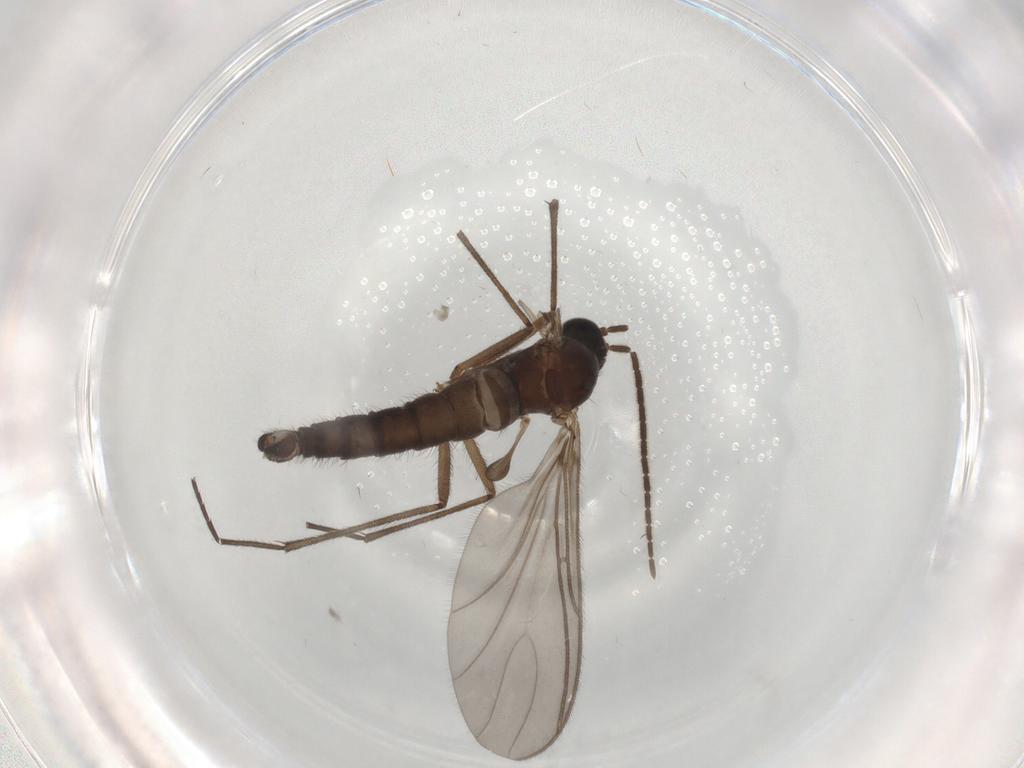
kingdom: Animalia
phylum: Arthropoda
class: Insecta
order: Diptera
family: Sciaridae
